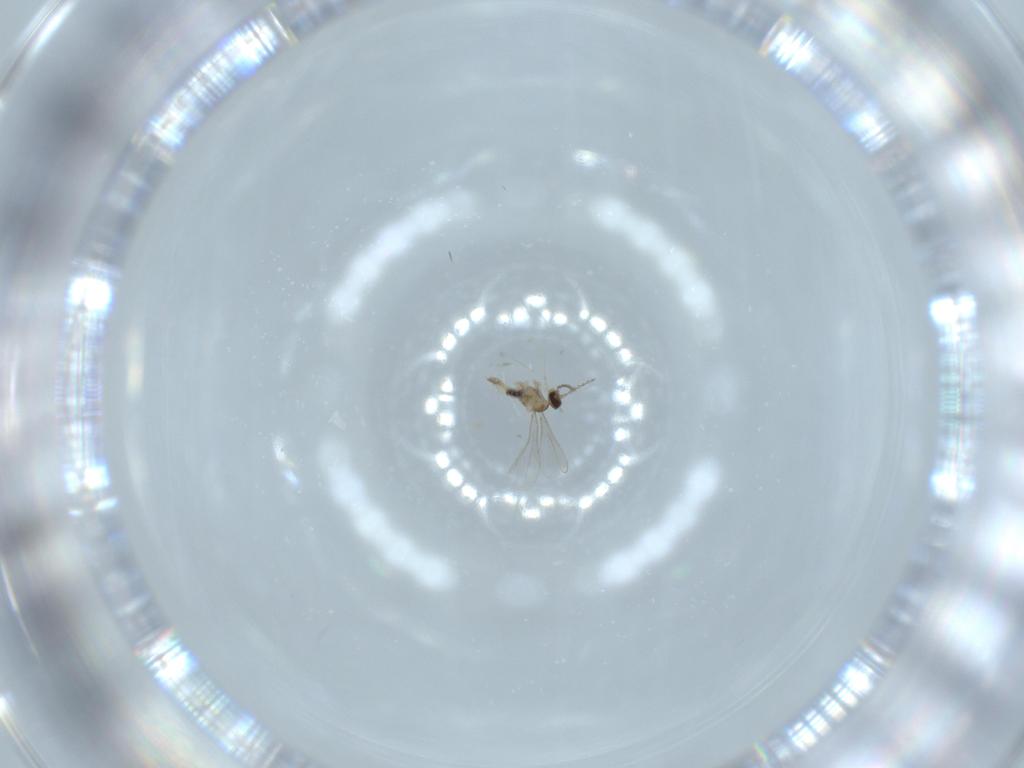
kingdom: Animalia
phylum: Arthropoda
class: Insecta
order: Diptera
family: Cecidomyiidae
